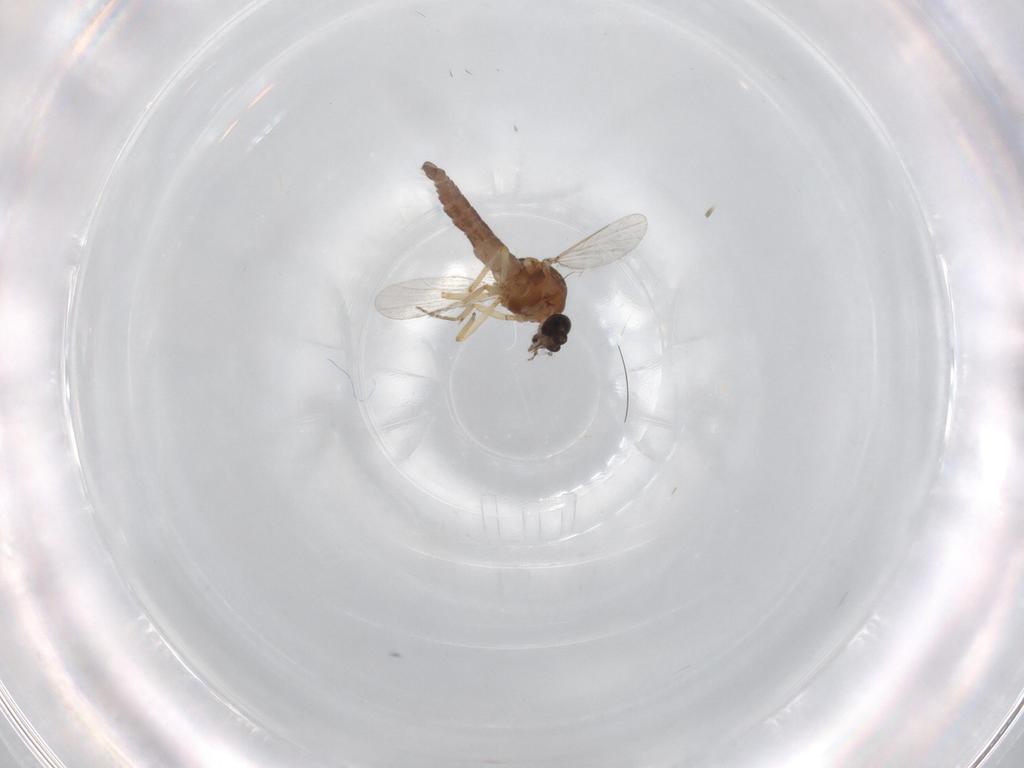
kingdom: Animalia
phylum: Arthropoda
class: Insecta
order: Diptera
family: Ceratopogonidae
